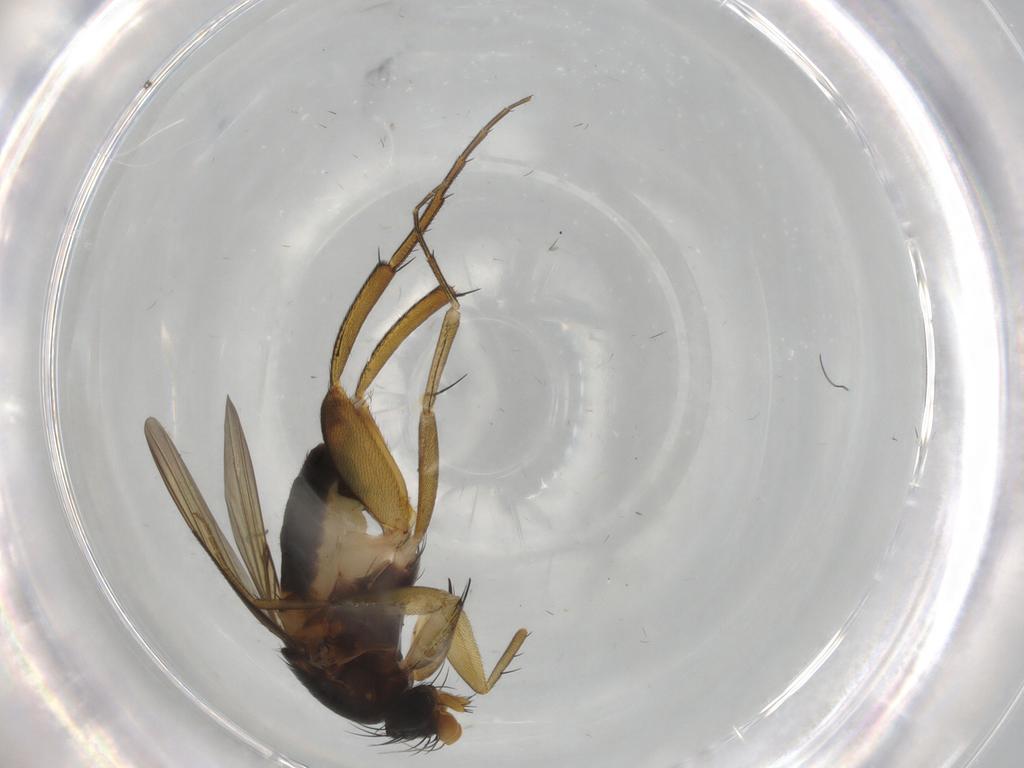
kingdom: Animalia
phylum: Arthropoda
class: Insecta
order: Diptera
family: Phoridae
